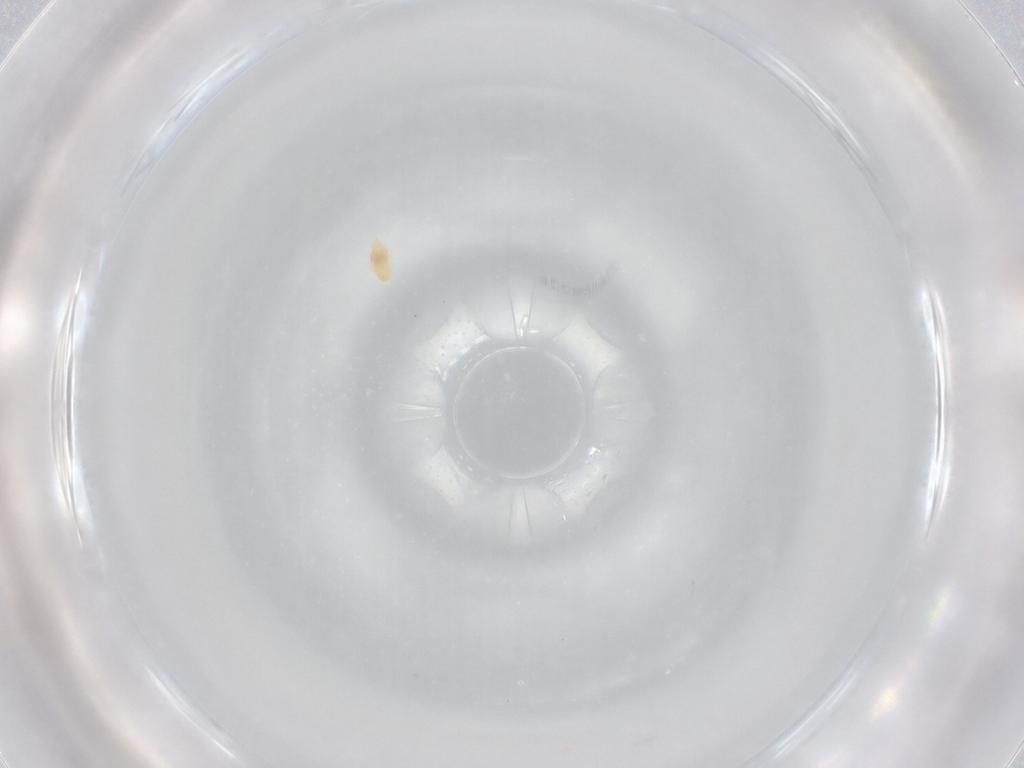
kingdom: Animalia
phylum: Arthropoda
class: Arachnida
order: Trombidiformes
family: Eupodidae
